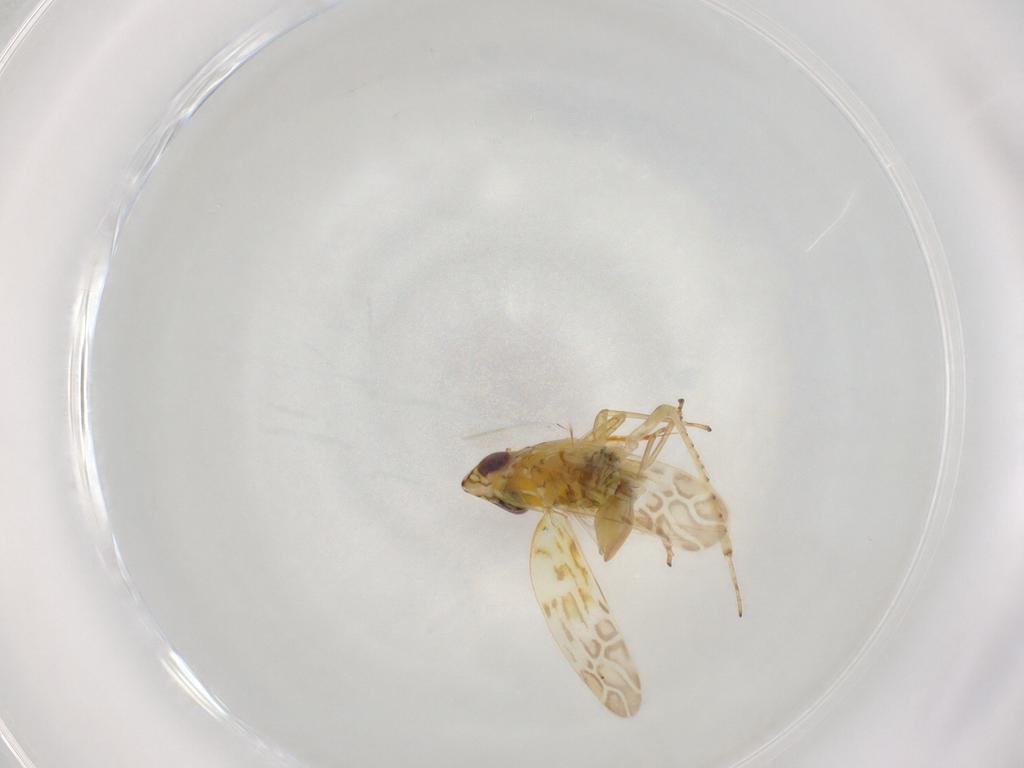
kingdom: Animalia
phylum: Arthropoda
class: Insecta
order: Hemiptera
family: Cicadellidae
